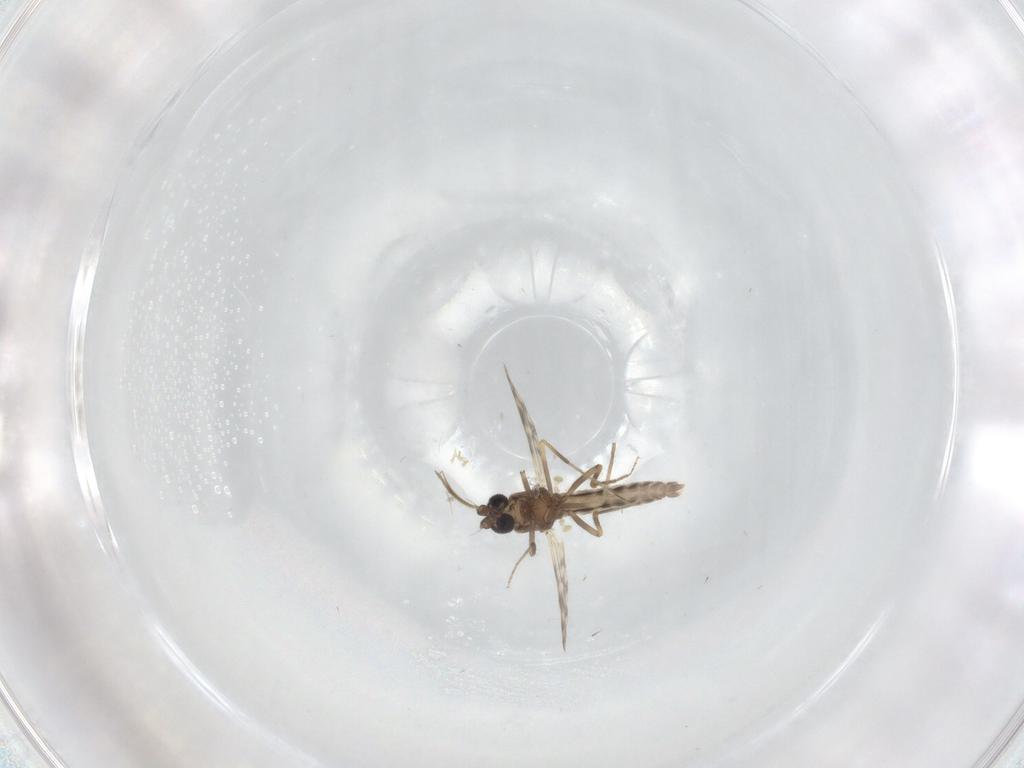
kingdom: Animalia
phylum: Arthropoda
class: Insecta
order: Diptera
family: Ceratopogonidae
